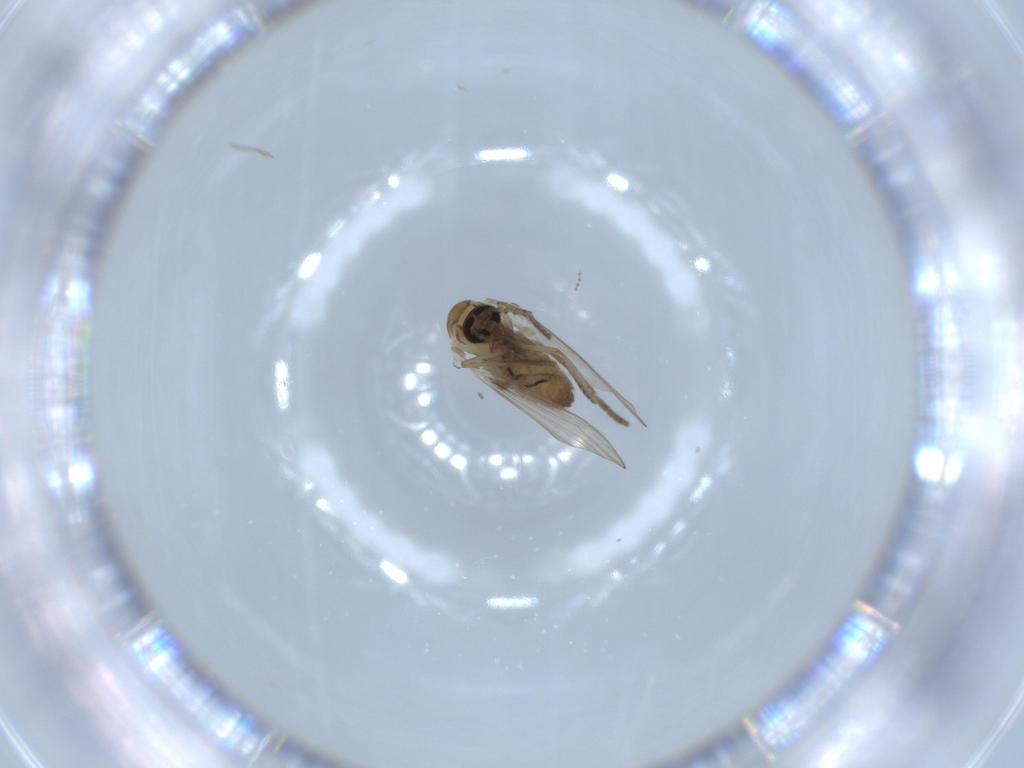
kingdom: Animalia
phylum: Arthropoda
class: Insecta
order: Diptera
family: Psychodidae
